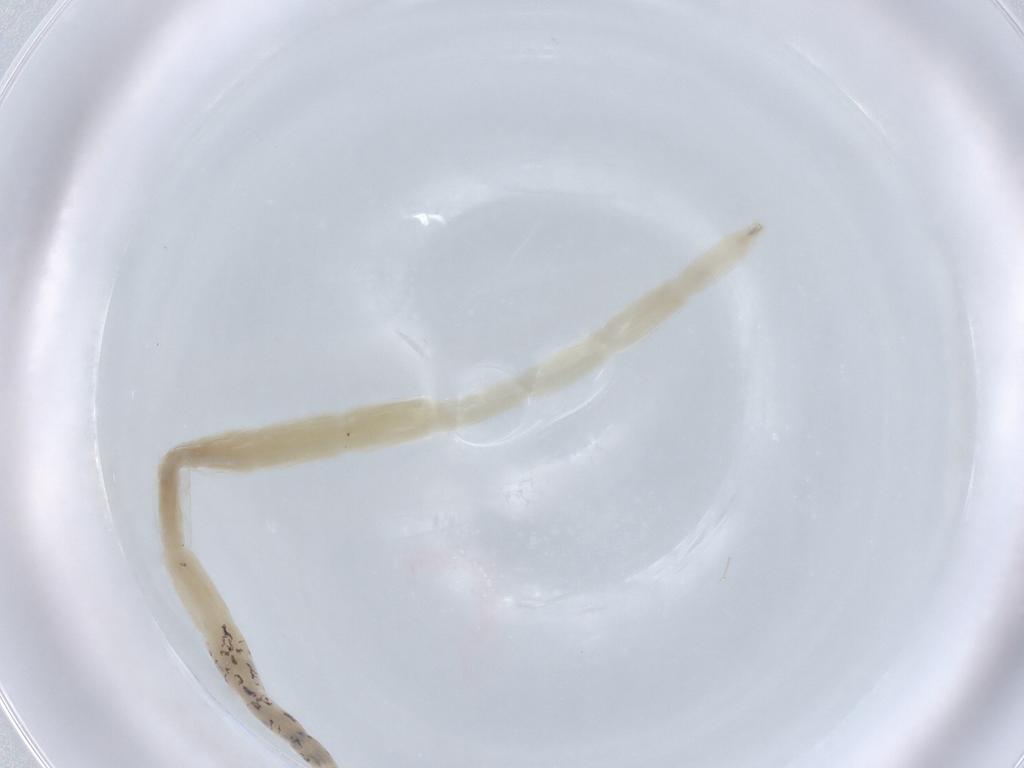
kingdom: Animalia
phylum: Arthropoda
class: Insecta
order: Diptera
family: Ceratopogonidae
